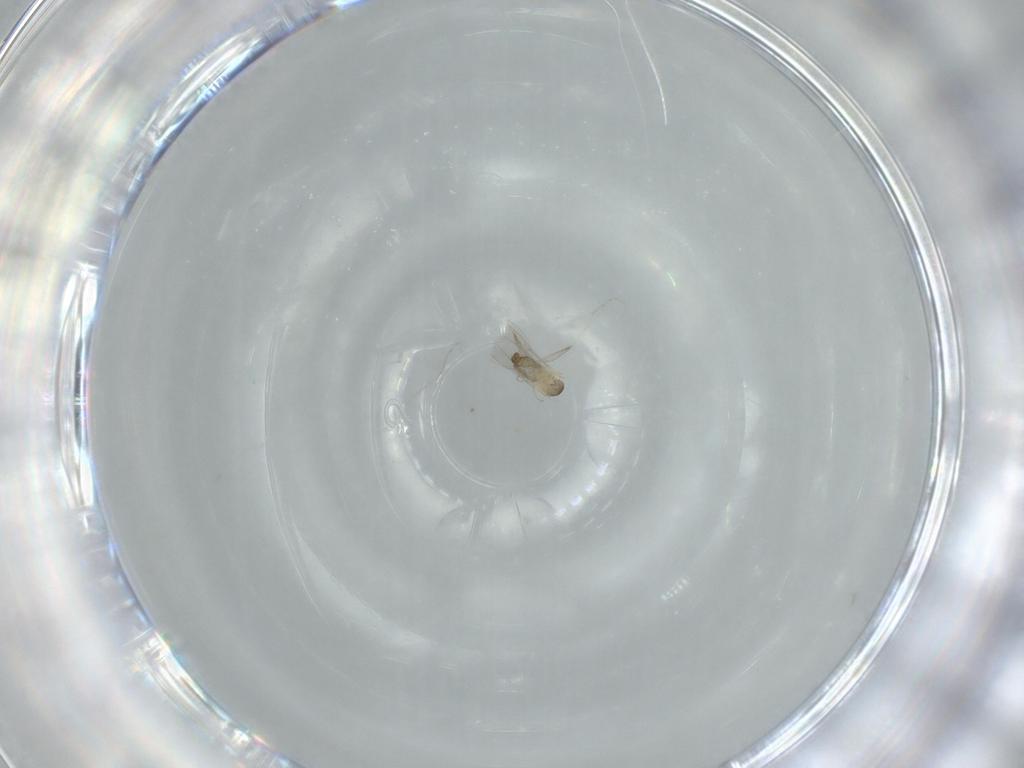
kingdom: Animalia
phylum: Arthropoda
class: Insecta
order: Diptera
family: Cecidomyiidae
